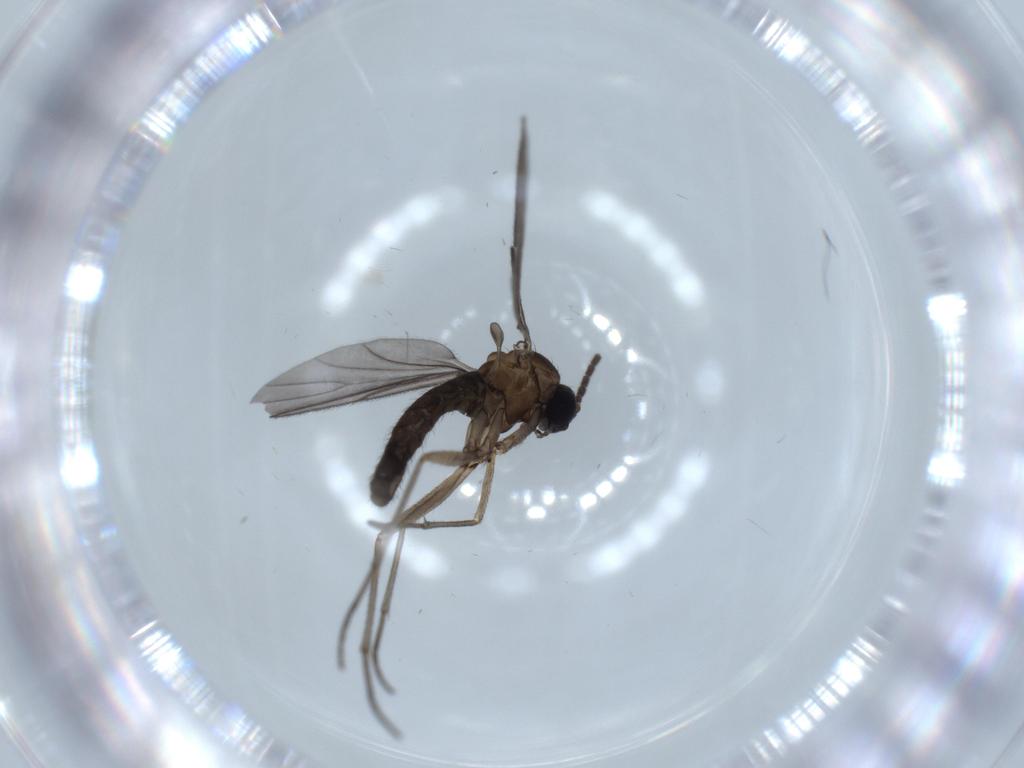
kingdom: Animalia
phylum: Arthropoda
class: Insecta
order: Diptera
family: Sciaridae
